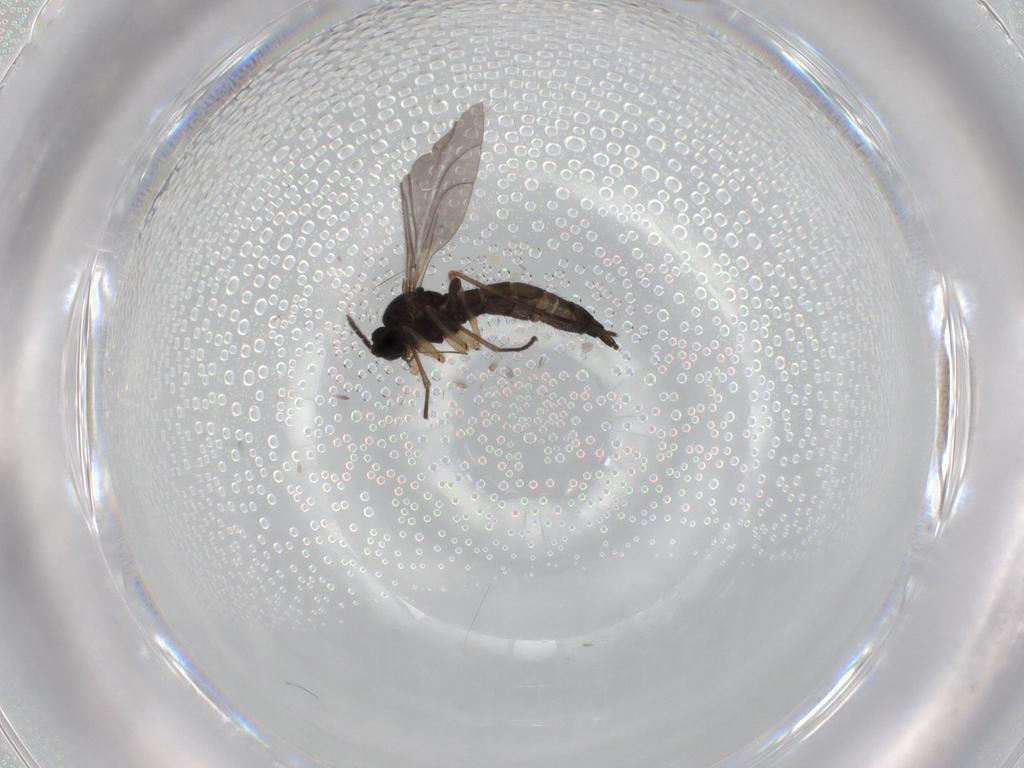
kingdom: Animalia
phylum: Arthropoda
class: Insecta
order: Diptera
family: Sciaridae
